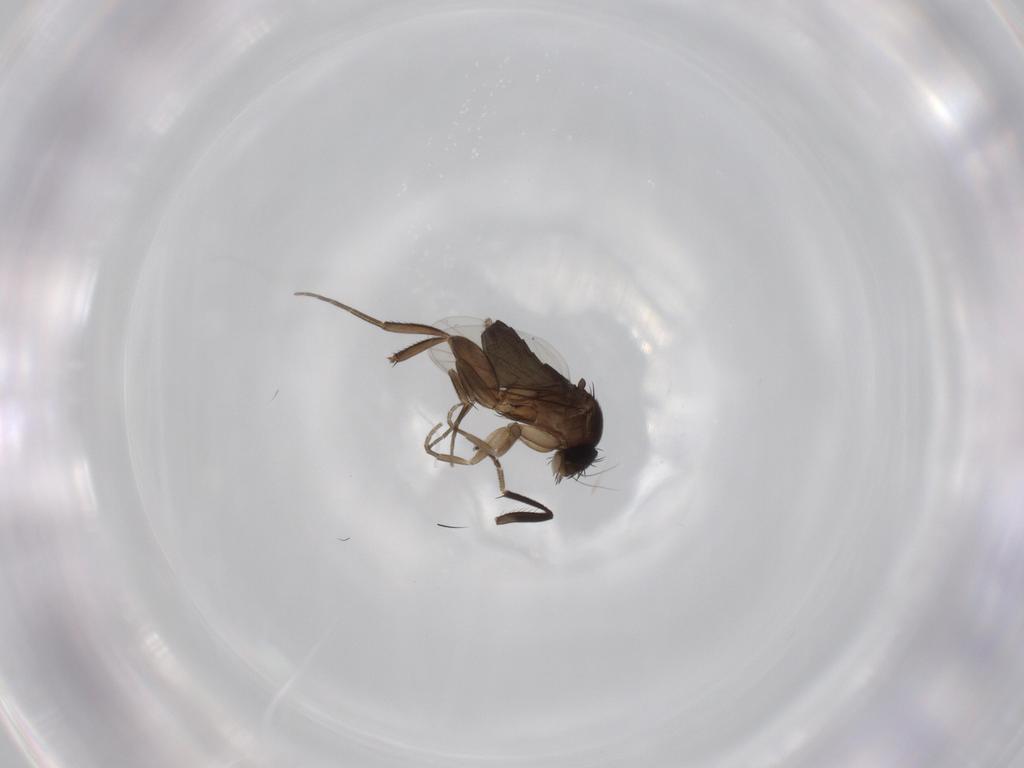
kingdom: Animalia
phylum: Arthropoda
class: Insecta
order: Diptera
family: Phoridae
